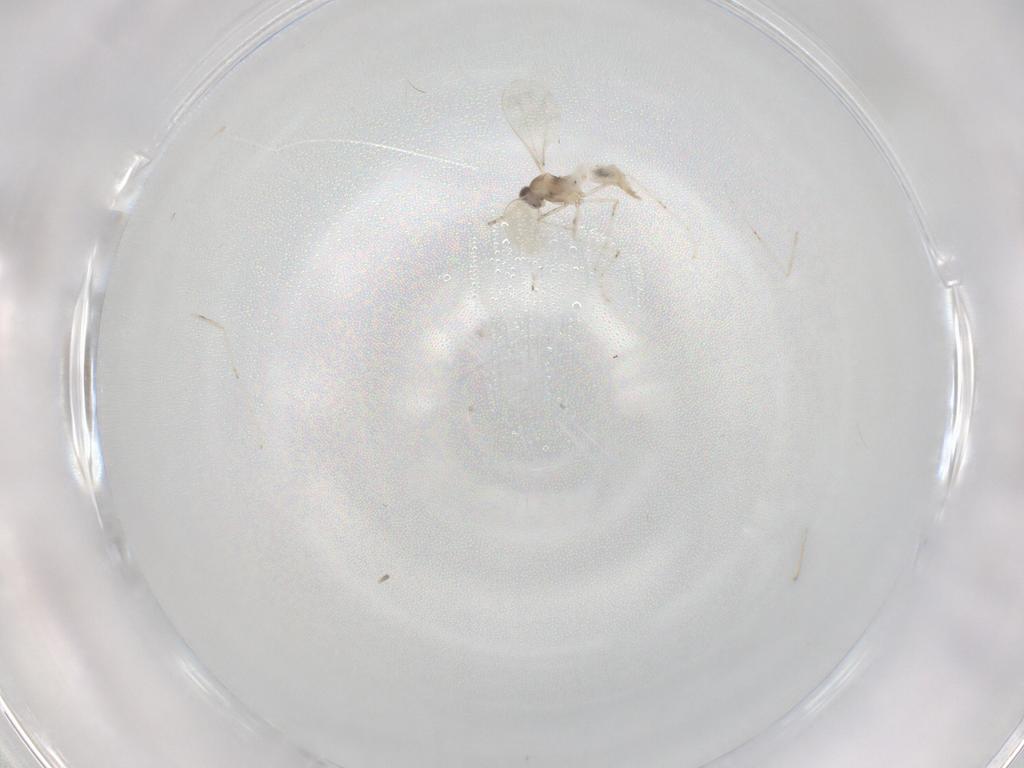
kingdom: Animalia
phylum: Arthropoda
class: Insecta
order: Diptera
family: Cecidomyiidae
